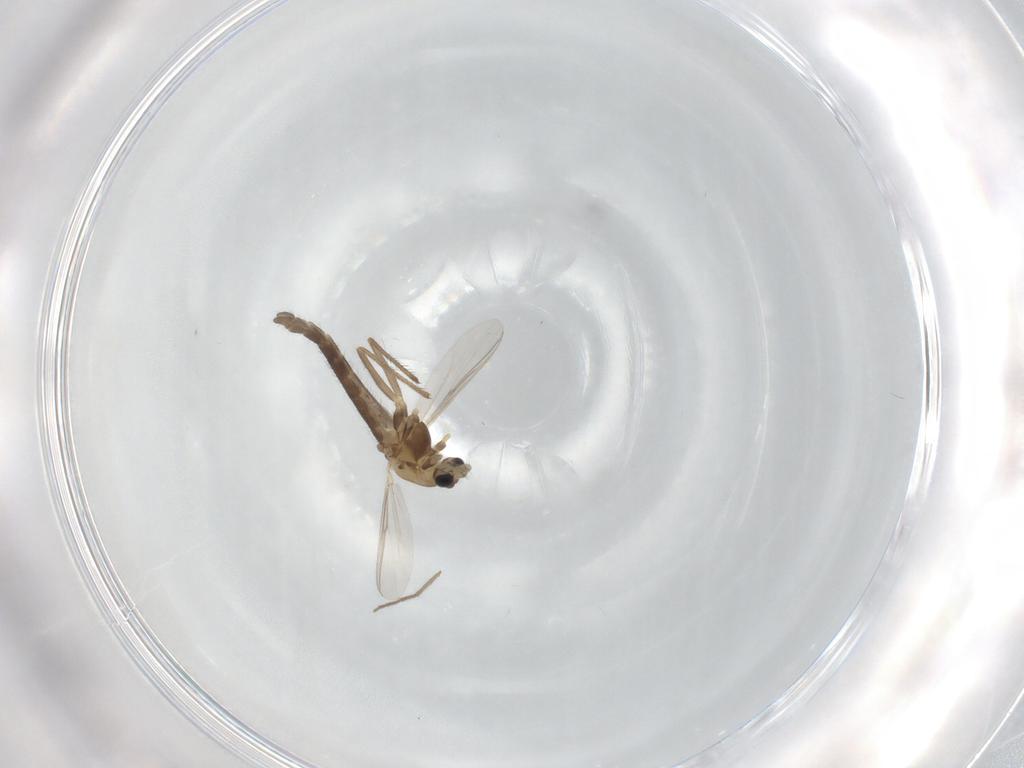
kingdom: Animalia
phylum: Arthropoda
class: Insecta
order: Diptera
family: Chironomidae
